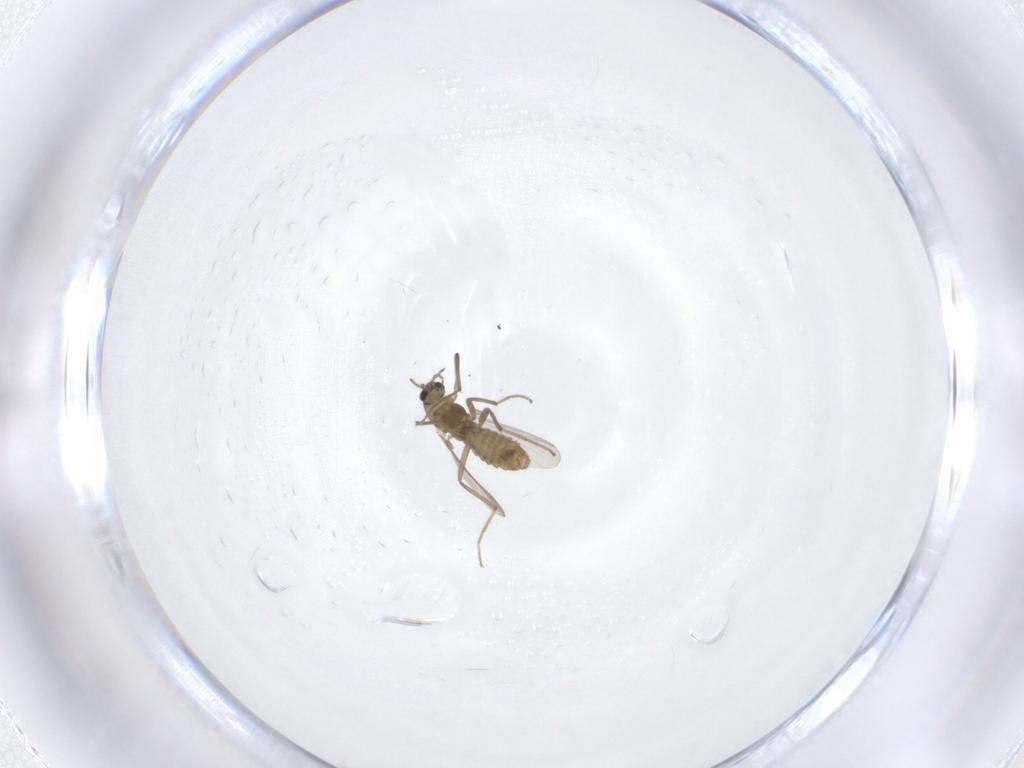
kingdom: Animalia
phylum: Arthropoda
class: Insecta
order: Diptera
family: Chironomidae
